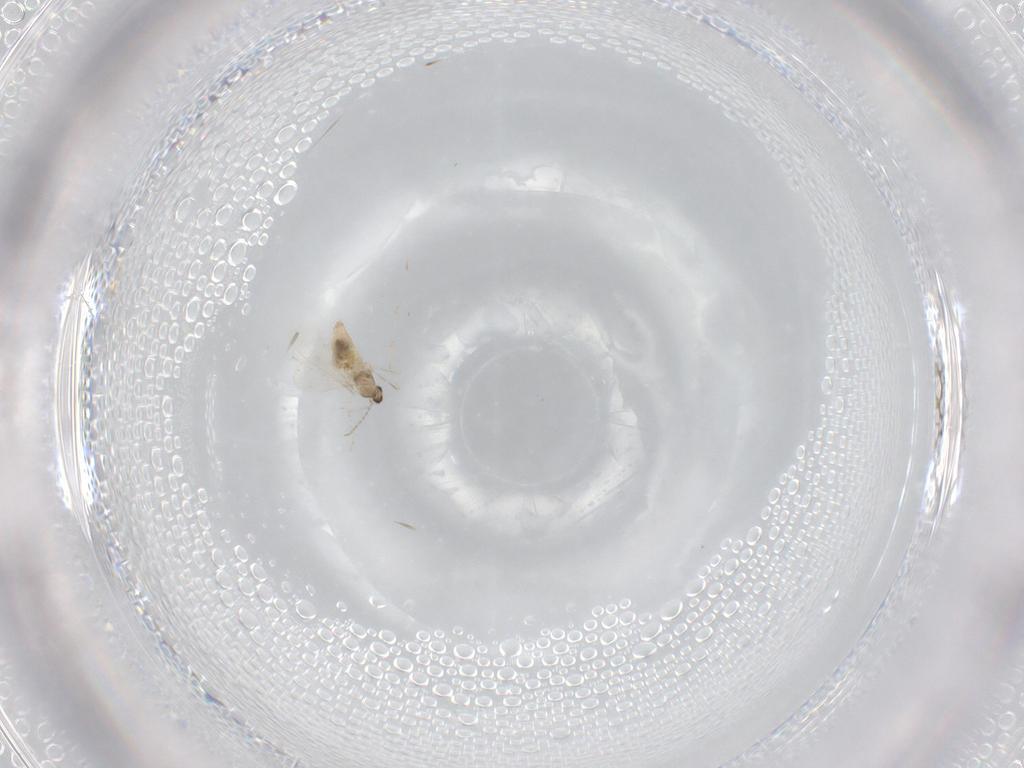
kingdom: Animalia
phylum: Arthropoda
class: Insecta
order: Diptera
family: Cecidomyiidae
